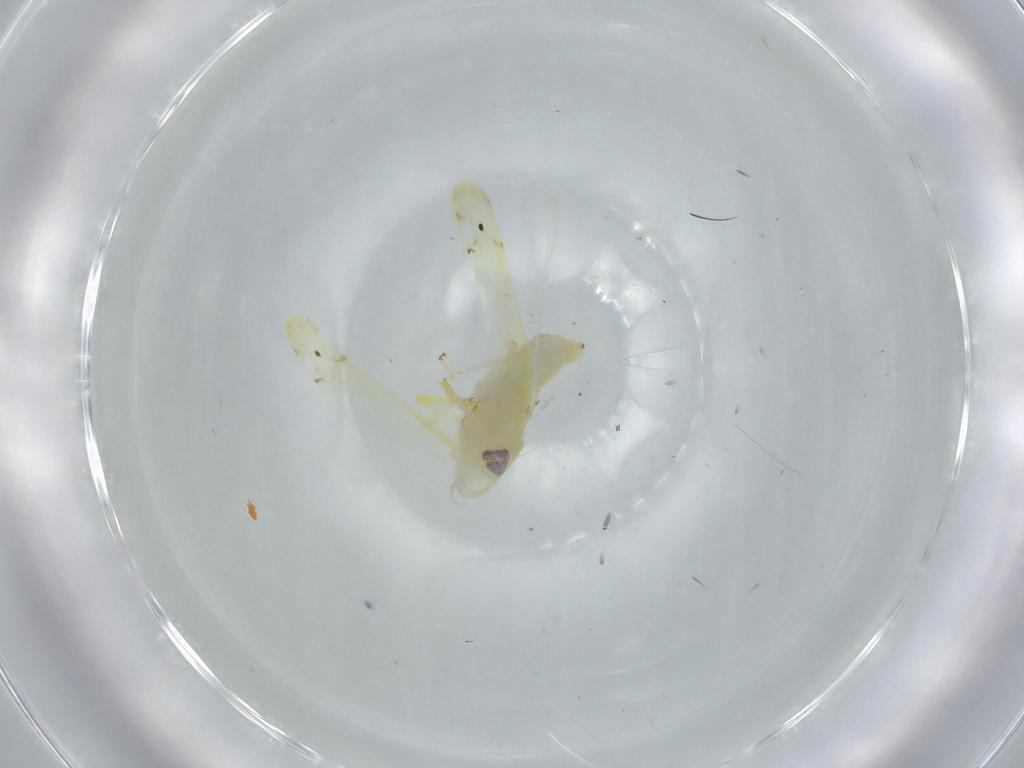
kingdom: Animalia
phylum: Arthropoda
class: Insecta
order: Hemiptera
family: Cicadellidae
